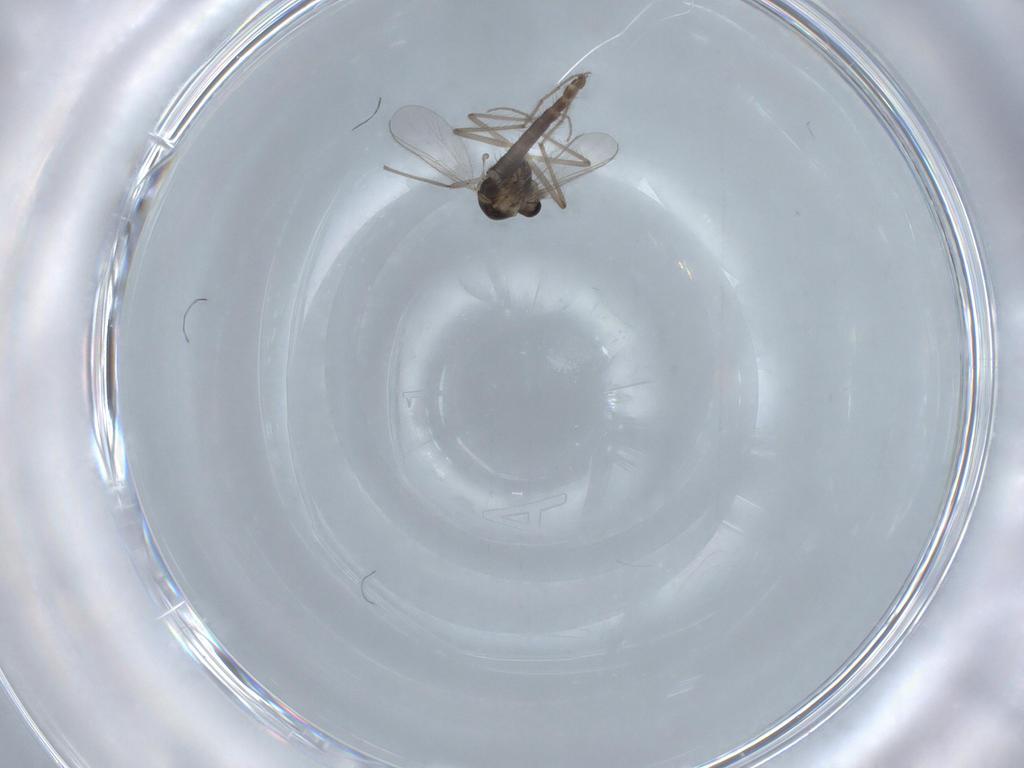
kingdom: Animalia
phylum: Arthropoda
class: Insecta
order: Diptera
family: Chironomidae
